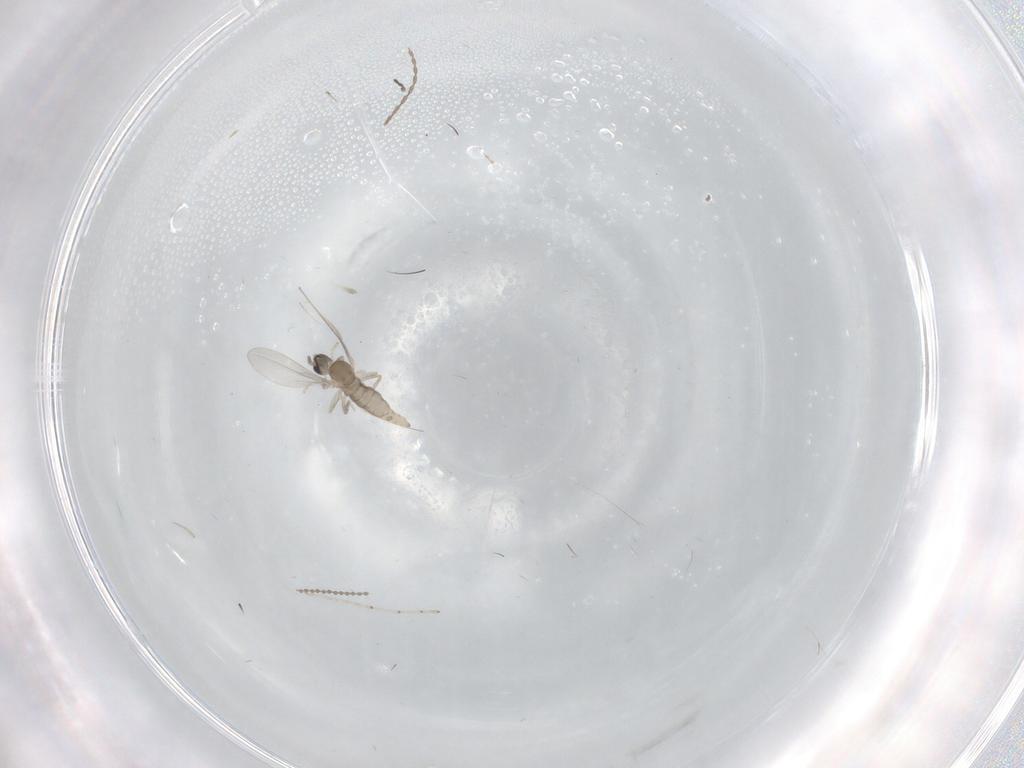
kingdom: Animalia
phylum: Arthropoda
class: Insecta
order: Diptera
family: Cecidomyiidae
